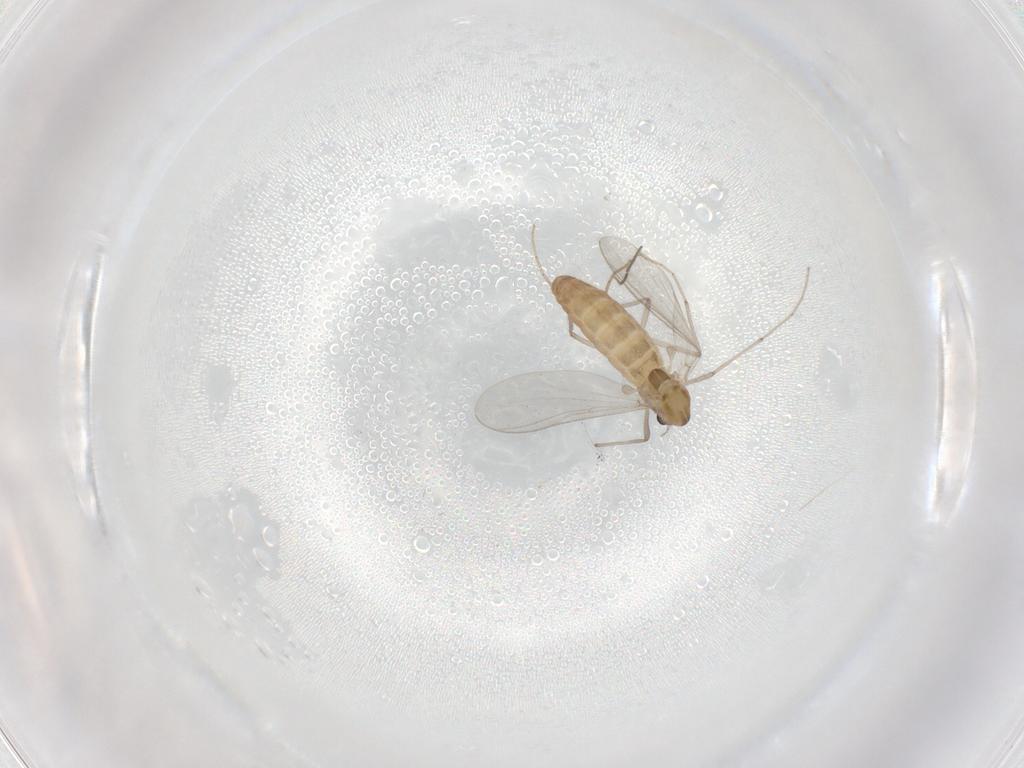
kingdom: Animalia
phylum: Arthropoda
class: Insecta
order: Diptera
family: Chironomidae
